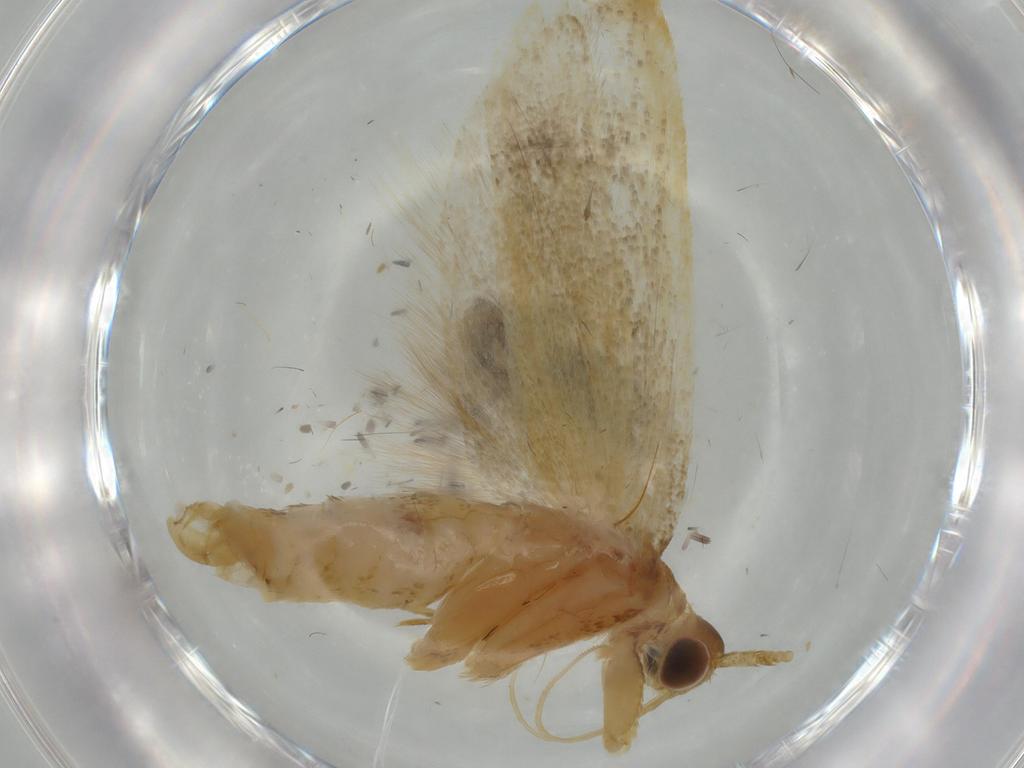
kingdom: Animalia
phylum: Arthropoda
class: Insecta
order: Lepidoptera
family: Lecithoceridae
